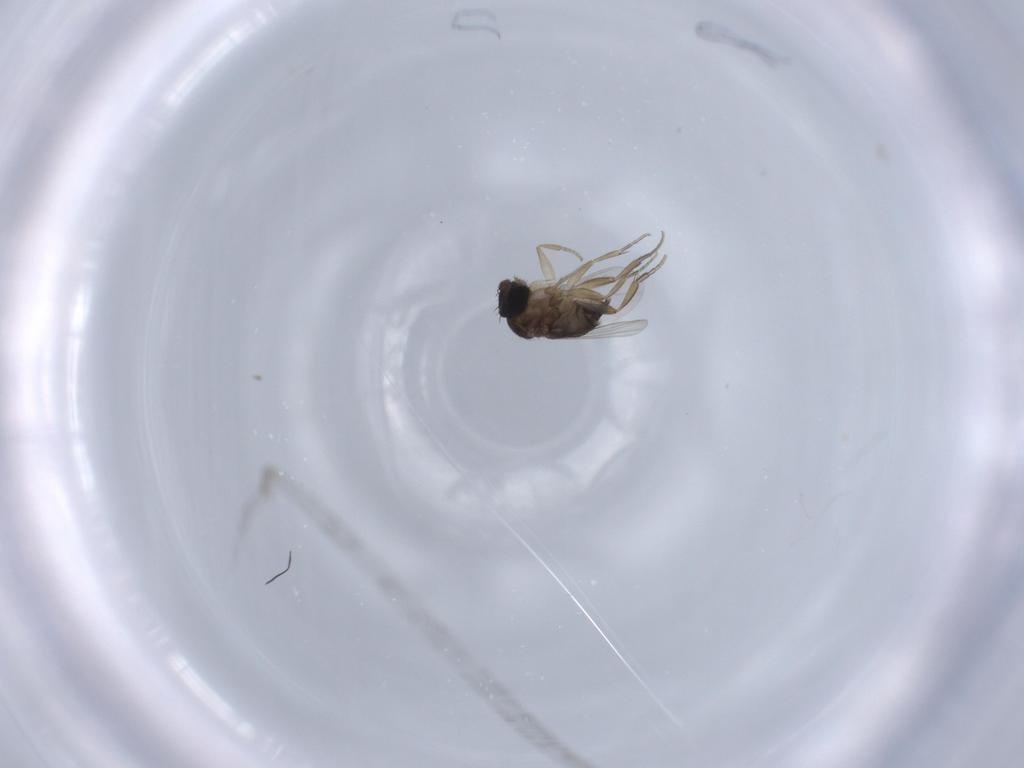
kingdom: Animalia
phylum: Arthropoda
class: Insecta
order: Diptera
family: Phoridae
